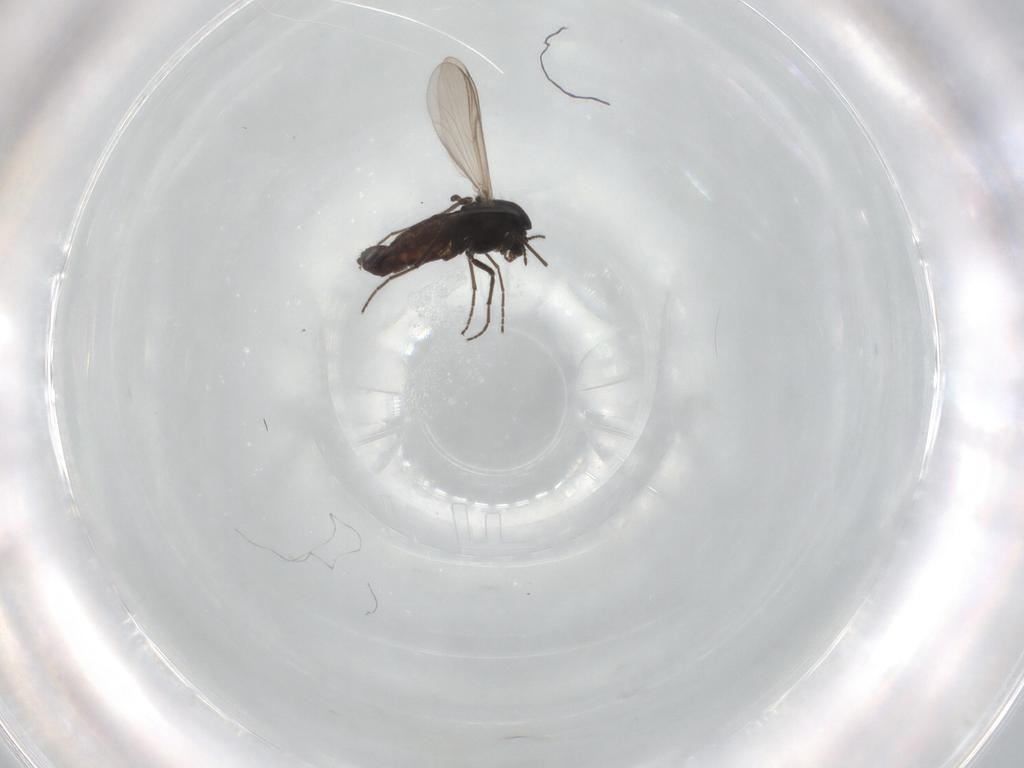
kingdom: Animalia
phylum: Arthropoda
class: Insecta
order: Diptera
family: Chironomidae
